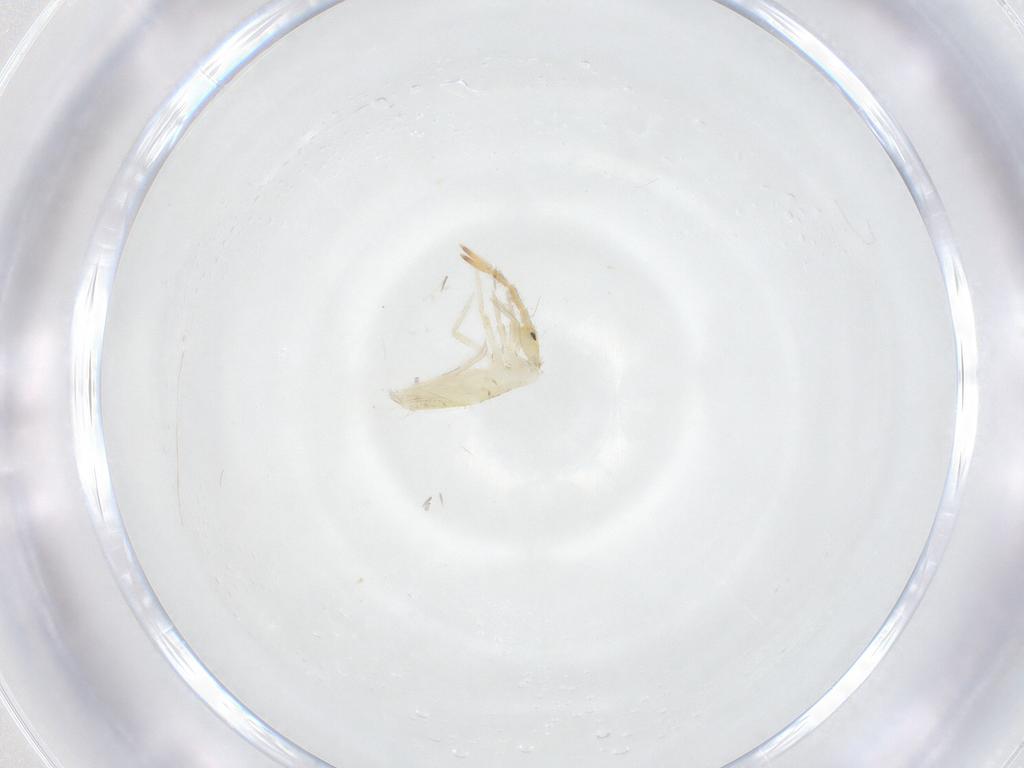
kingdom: Animalia
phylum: Arthropoda
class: Collembola
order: Entomobryomorpha
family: Entomobryidae
